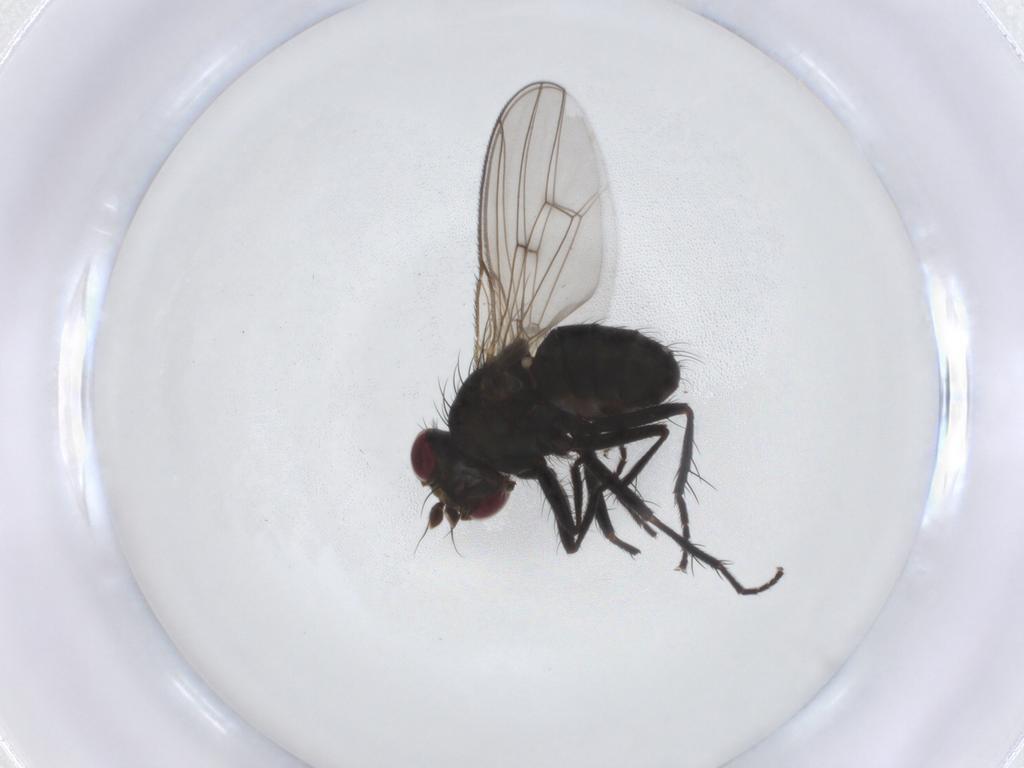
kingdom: Animalia
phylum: Arthropoda
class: Insecta
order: Diptera
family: Muscidae
